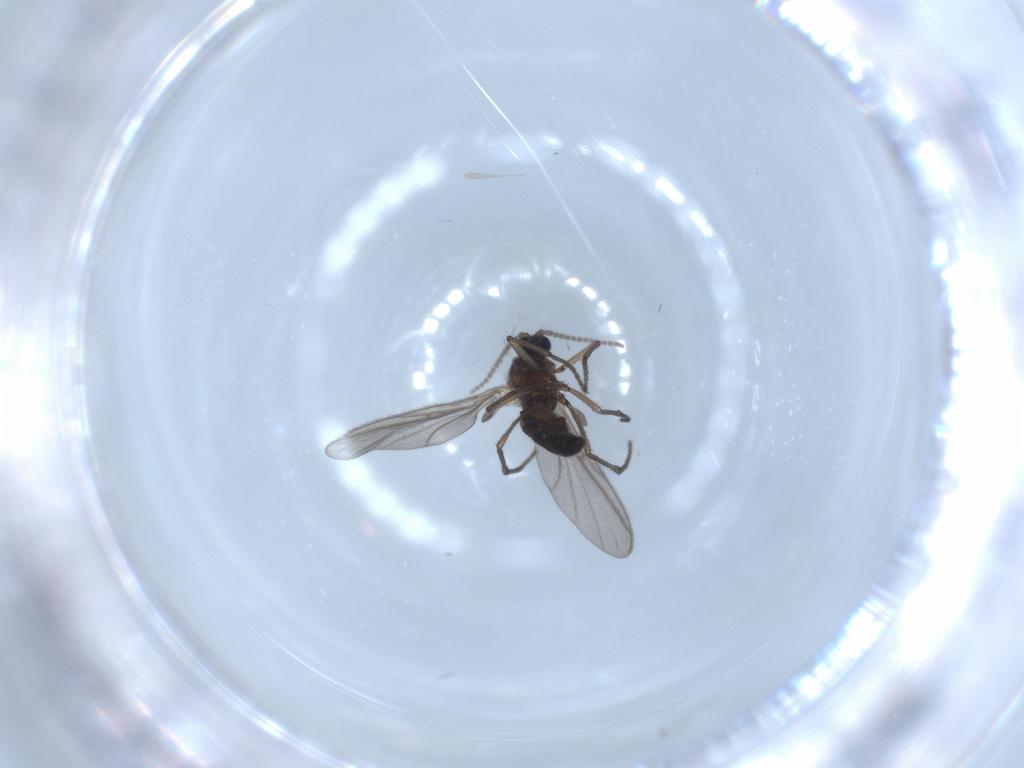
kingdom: Animalia
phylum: Arthropoda
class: Insecta
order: Diptera
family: Sciaridae
